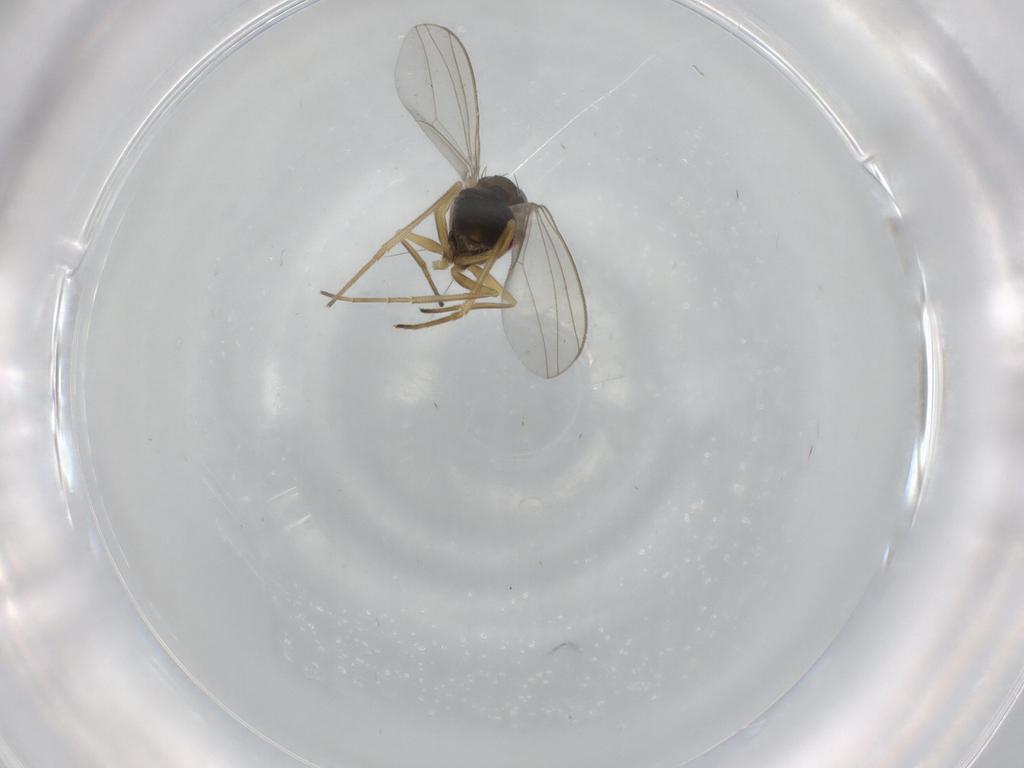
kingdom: Animalia
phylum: Arthropoda
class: Insecta
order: Diptera
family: Dolichopodidae
